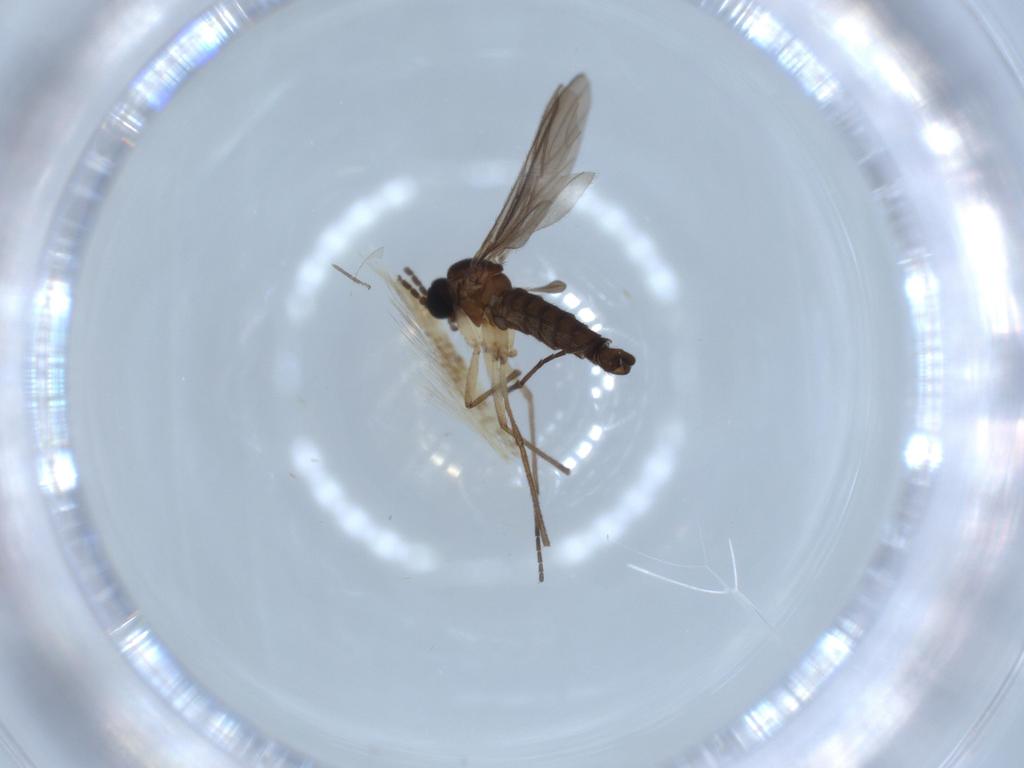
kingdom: Animalia
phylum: Arthropoda
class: Insecta
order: Diptera
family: Sciaridae
